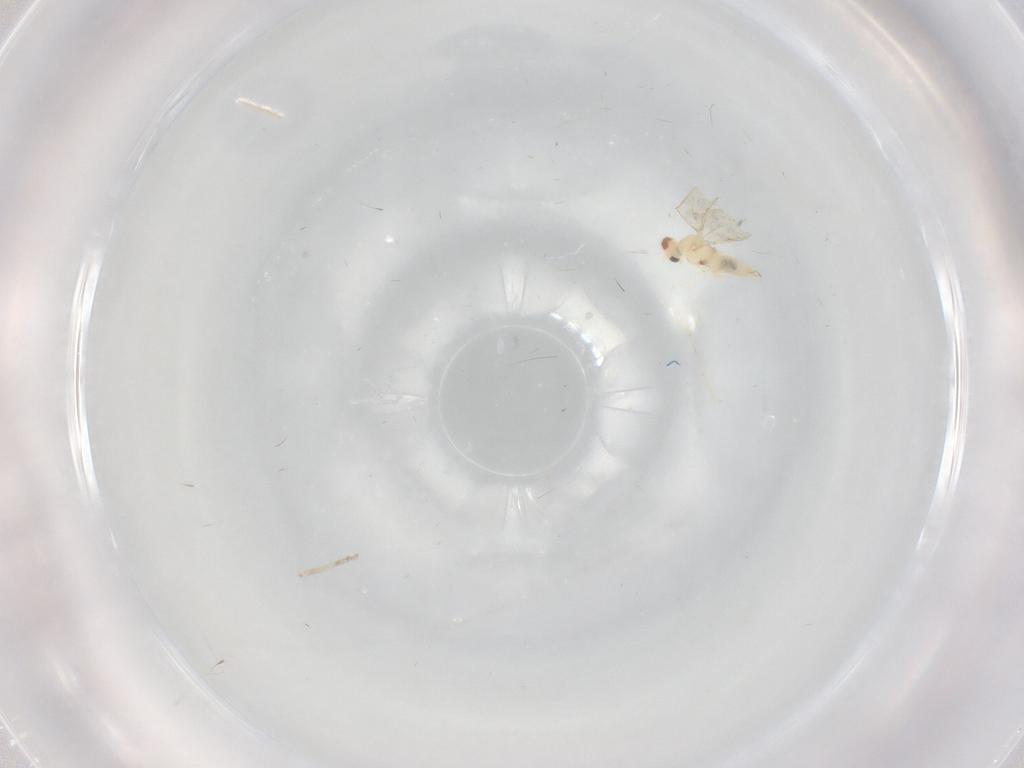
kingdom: Animalia
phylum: Arthropoda
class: Insecta
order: Diptera
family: Cecidomyiidae
